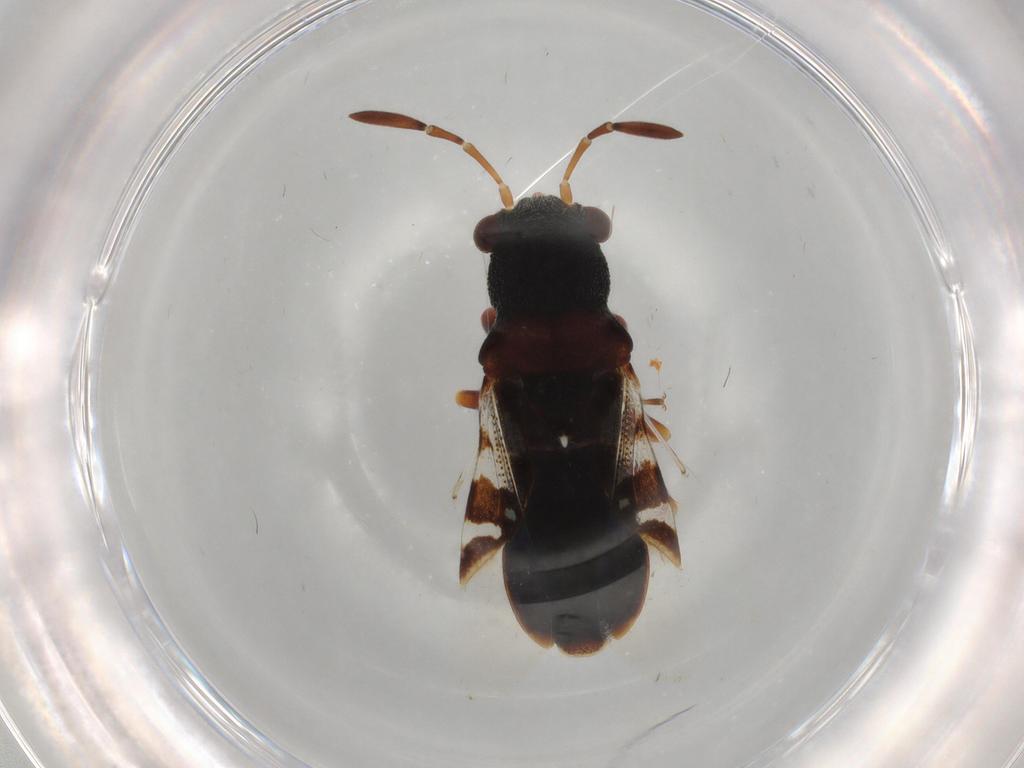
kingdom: Animalia
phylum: Arthropoda
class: Insecta
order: Hemiptera
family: Rhyparochromidae
